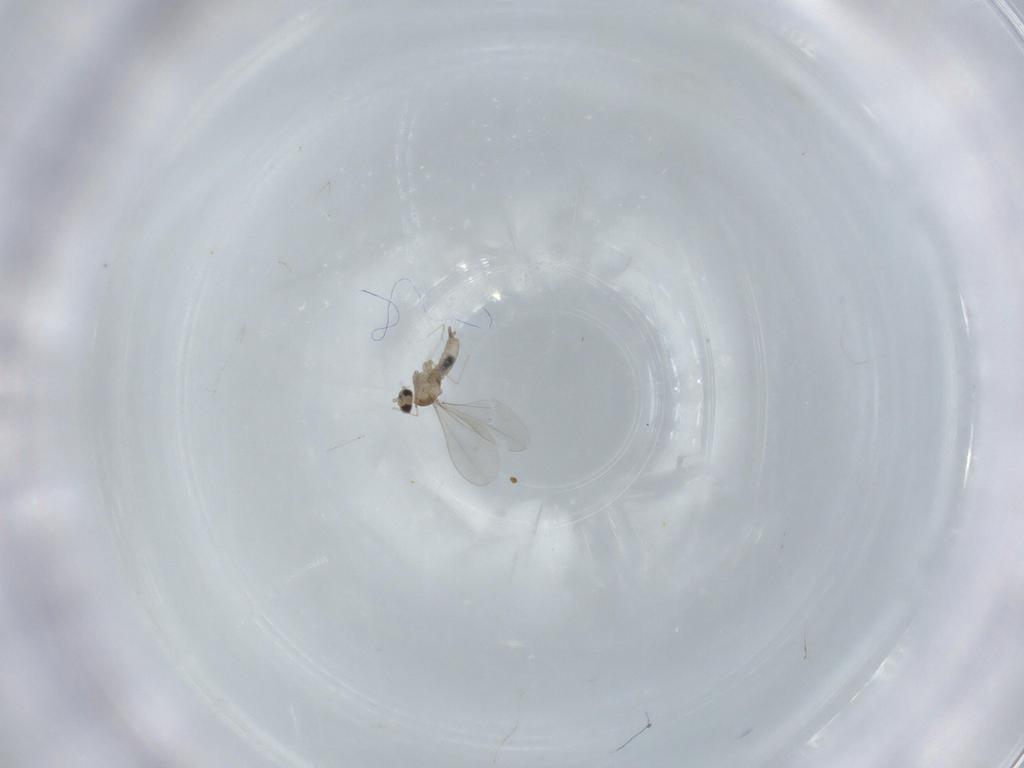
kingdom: Animalia
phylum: Arthropoda
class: Insecta
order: Diptera
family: Cecidomyiidae
